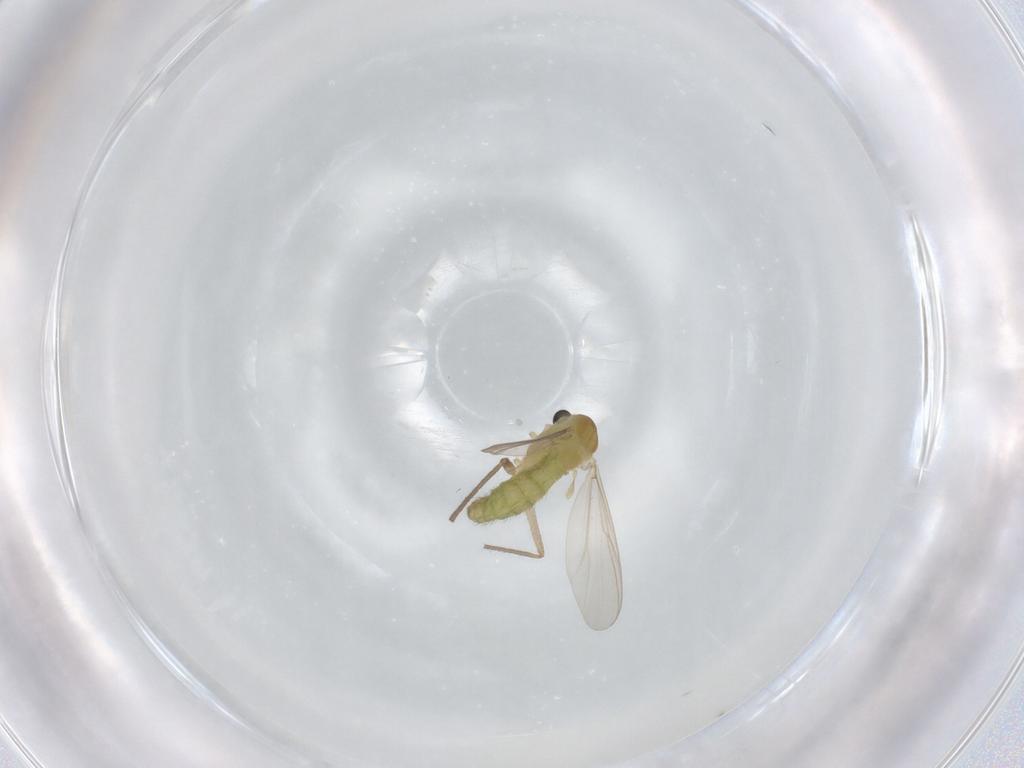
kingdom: Animalia
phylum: Arthropoda
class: Insecta
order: Diptera
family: Chironomidae
